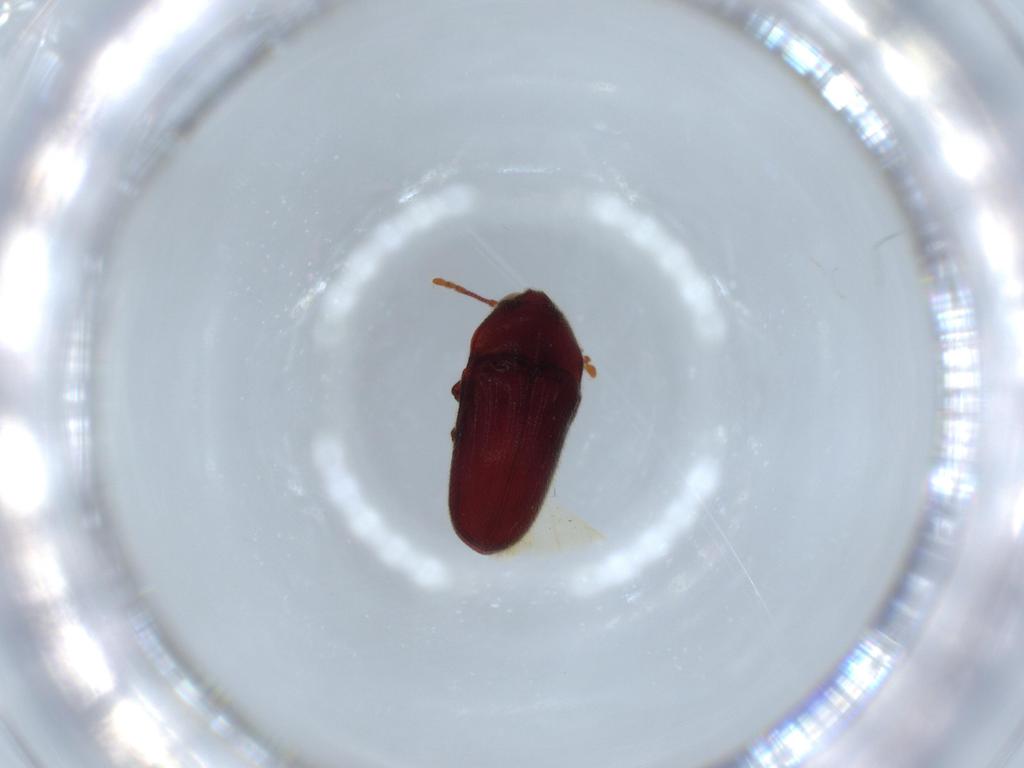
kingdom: Animalia
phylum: Arthropoda
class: Insecta
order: Coleoptera
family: Throscidae
